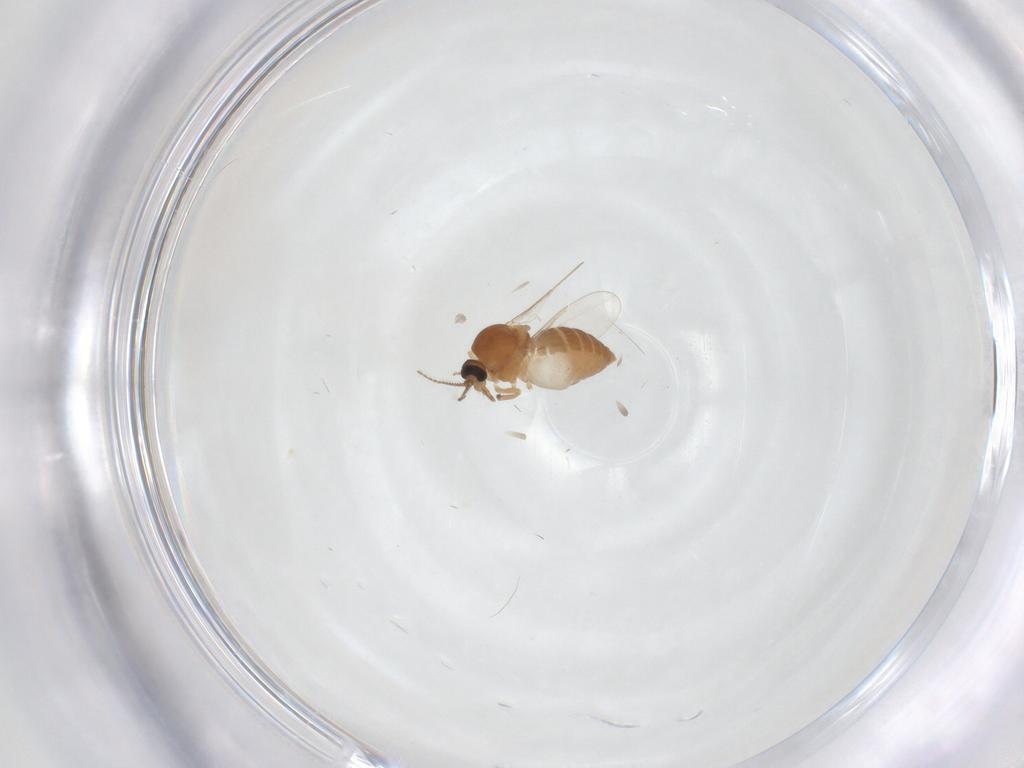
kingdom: Animalia
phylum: Arthropoda
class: Insecta
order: Diptera
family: Ceratopogonidae
